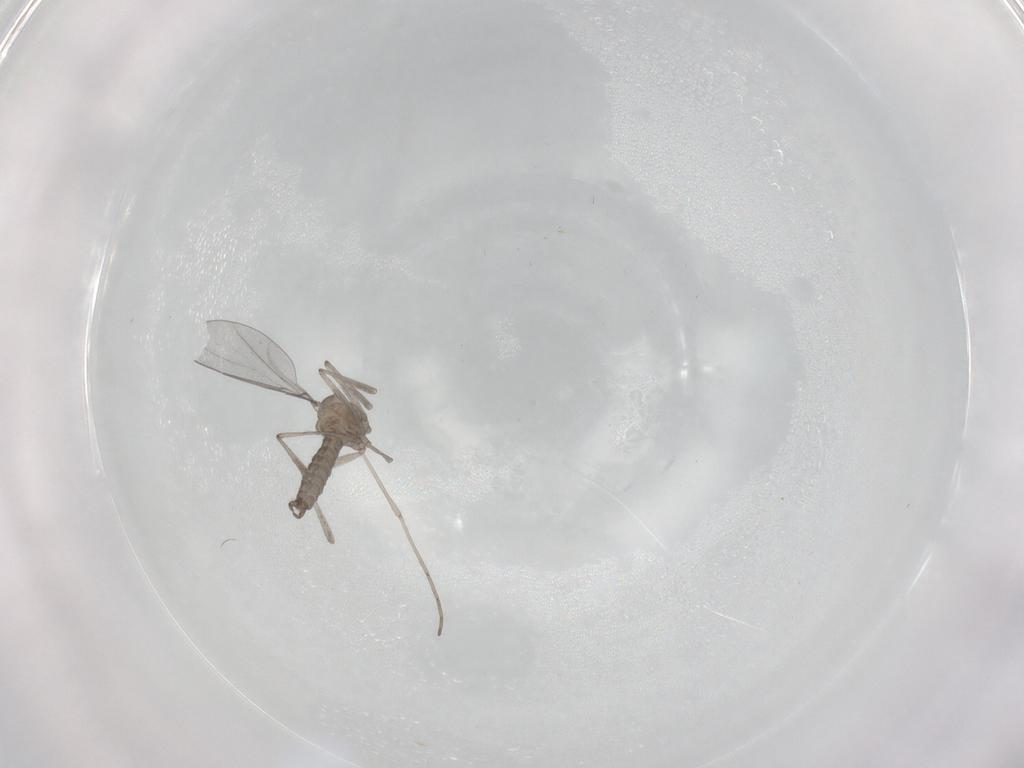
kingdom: Animalia
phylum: Arthropoda
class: Insecta
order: Diptera
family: Cecidomyiidae
